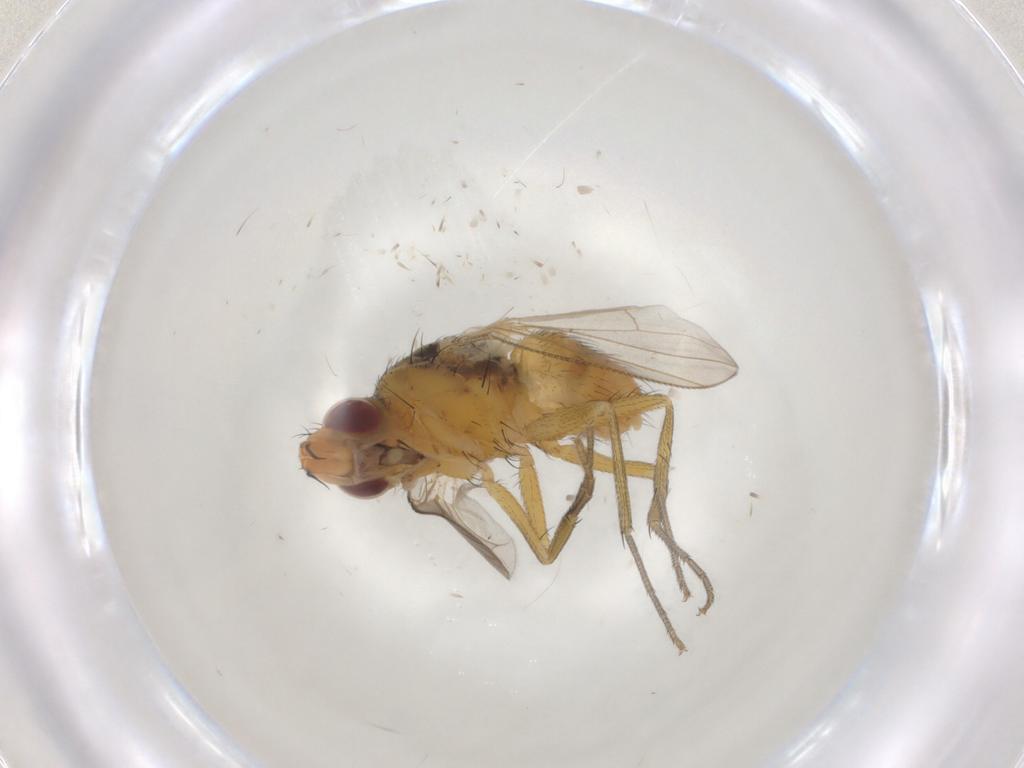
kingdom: Animalia
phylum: Arthropoda
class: Insecta
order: Diptera
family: Muscidae
